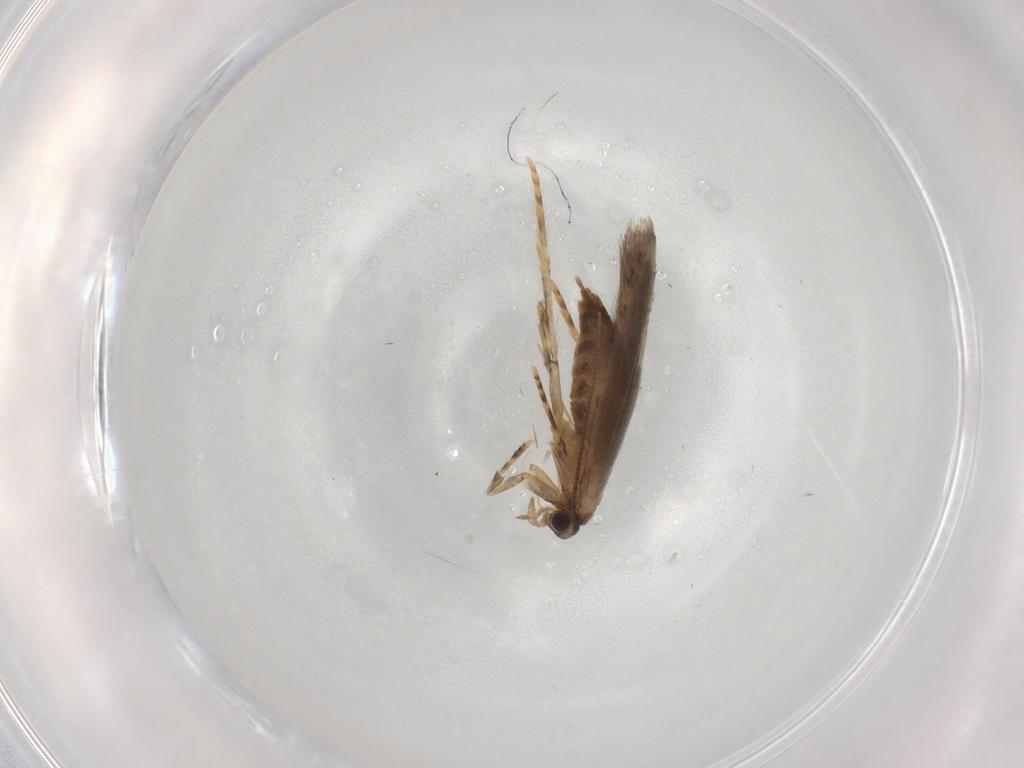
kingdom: Animalia
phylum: Arthropoda
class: Insecta
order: Lepidoptera
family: Tineidae
